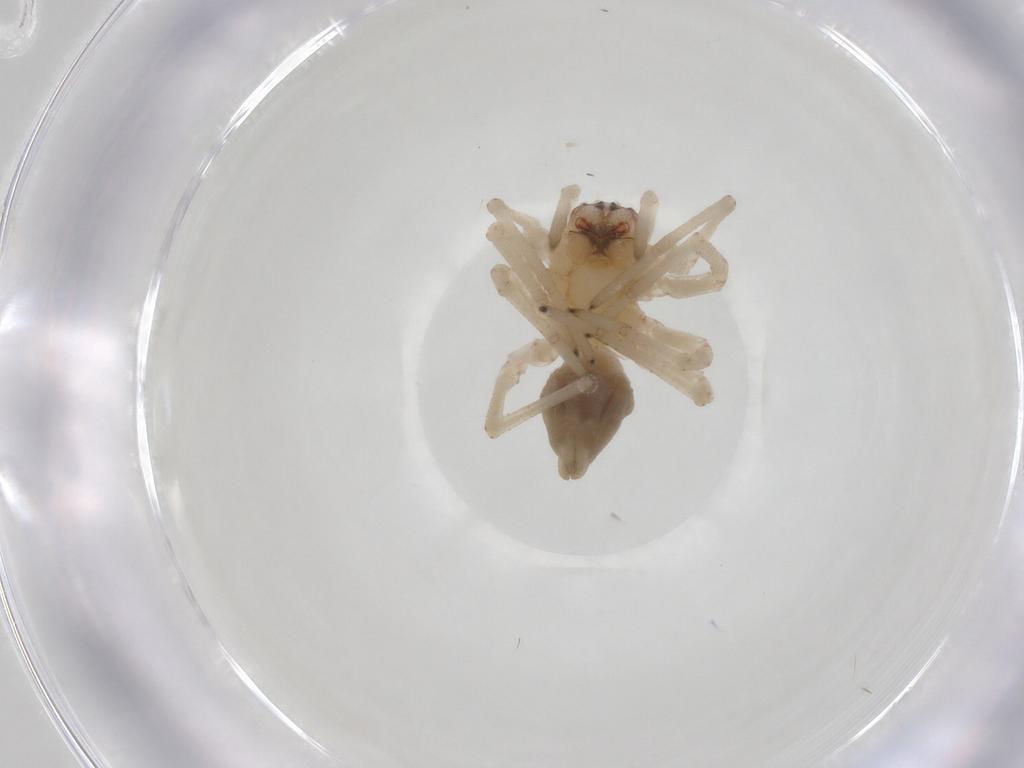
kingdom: Animalia
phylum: Arthropoda
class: Arachnida
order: Araneae
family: Cheiracanthiidae
